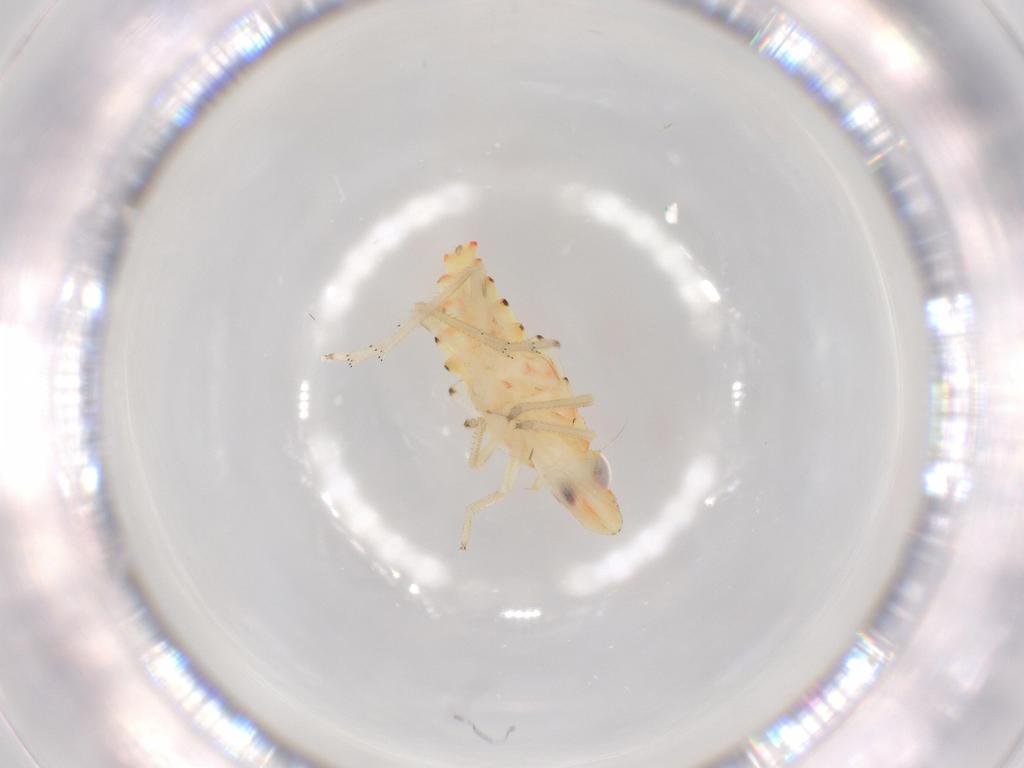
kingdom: Animalia
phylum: Arthropoda
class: Insecta
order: Hemiptera
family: Tropiduchidae
